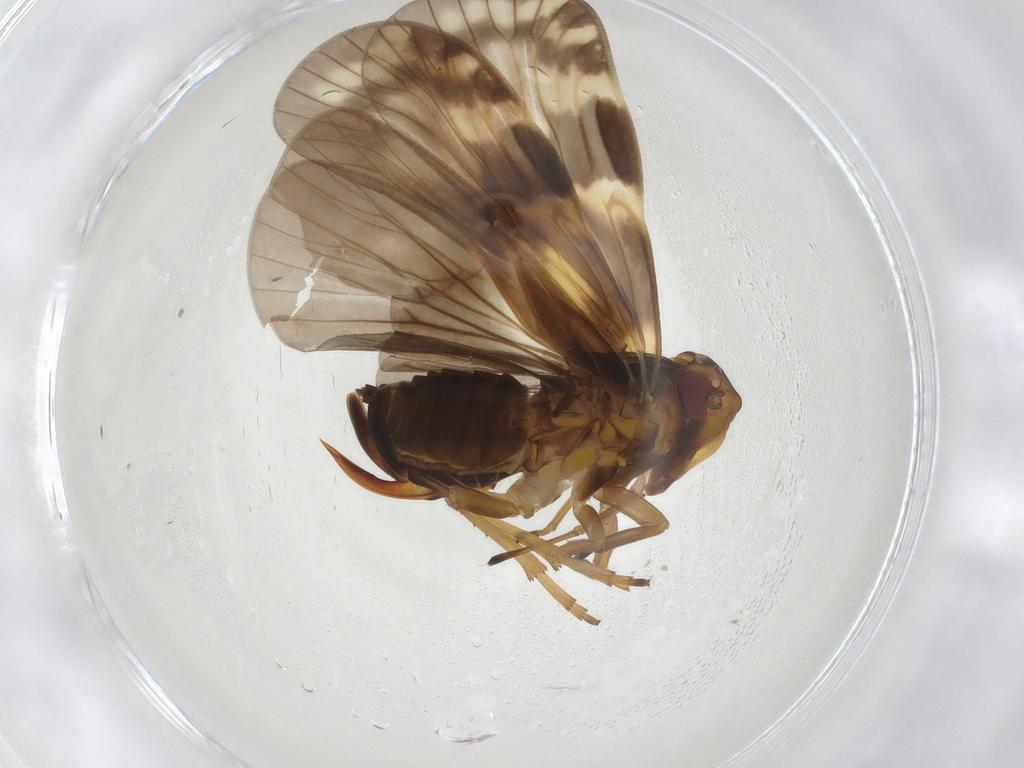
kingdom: Animalia
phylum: Arthropoda
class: Insecta
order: Hemiptera
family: Cixiidae
